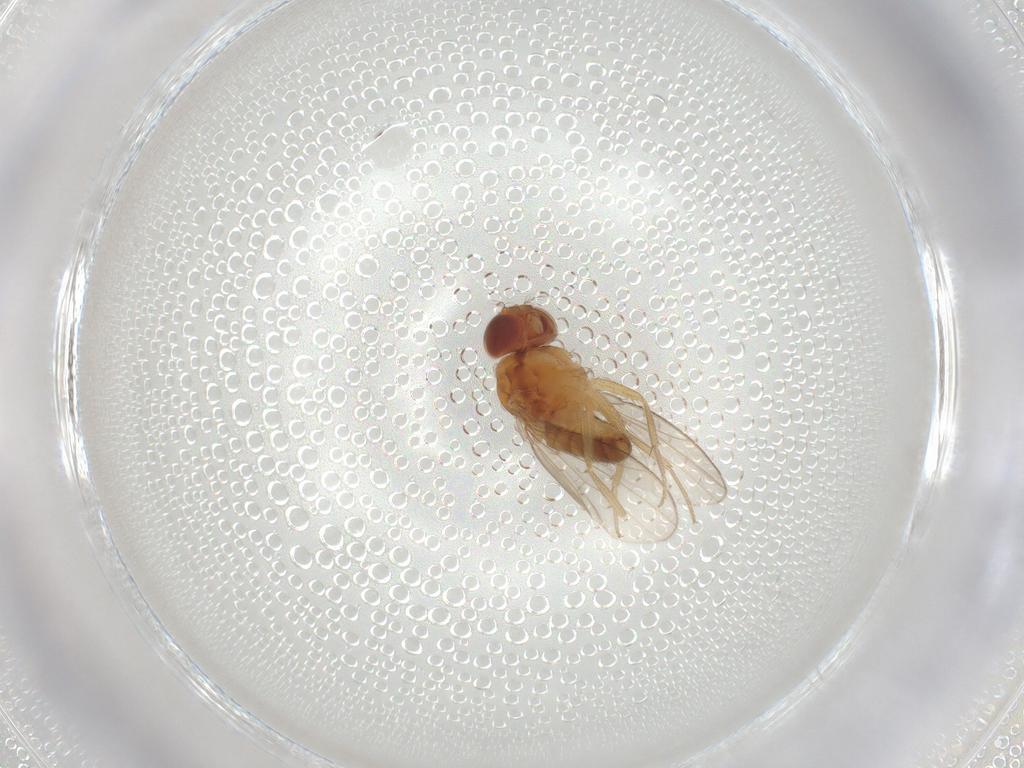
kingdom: Animalia
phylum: Arthropoda
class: Insecta
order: Diptera
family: Drosophilidae
